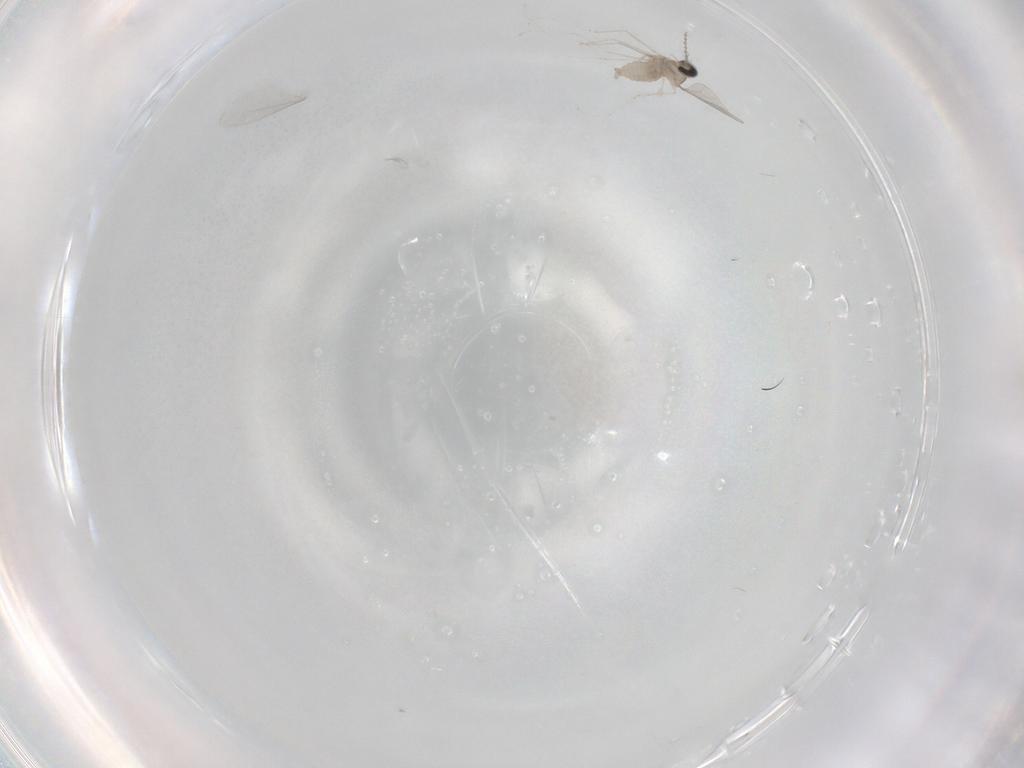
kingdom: Animalia
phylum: Arthropoda
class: Insecta
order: Diptera
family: Cecidomyiidae
